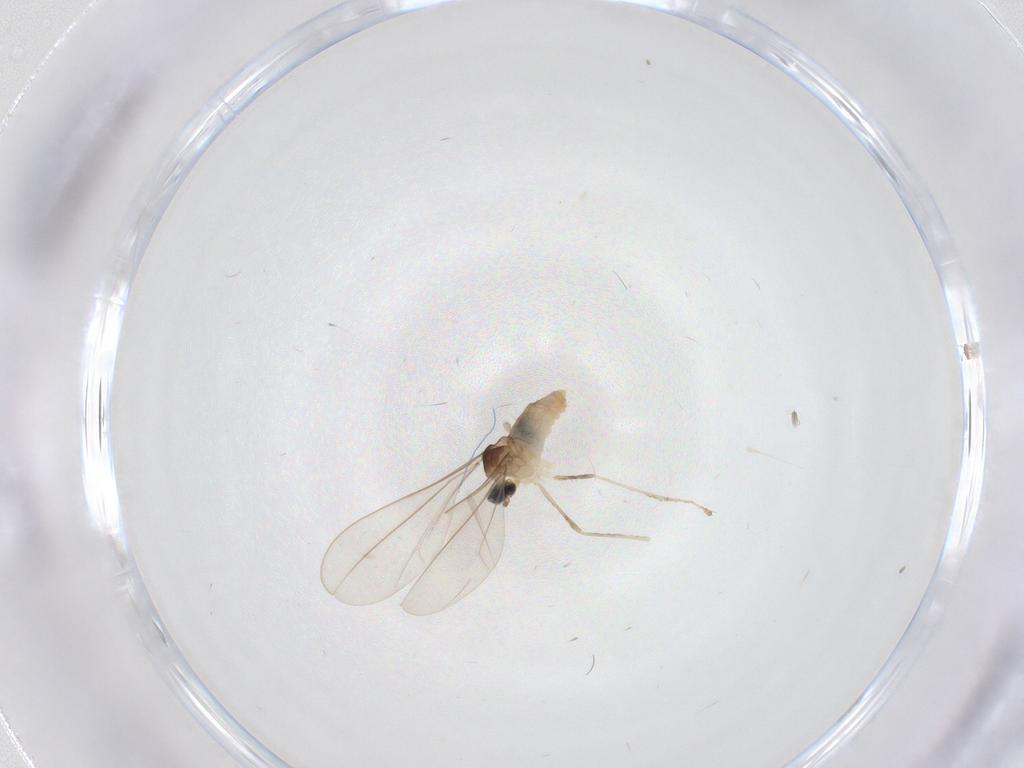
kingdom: Animalia
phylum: Arthropoda
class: Insecta
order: Diptera
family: Cecidomyiidae
